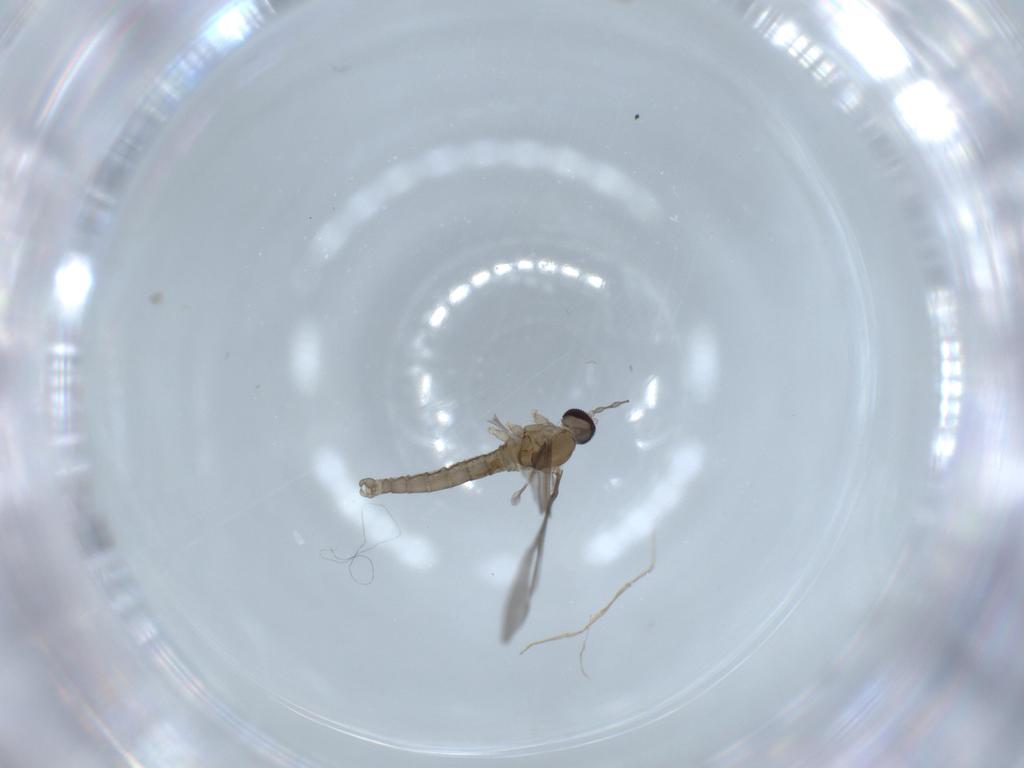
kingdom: Animalia
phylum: Arthropoda
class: Insecta
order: Diptera
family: Cecidomyiidae
